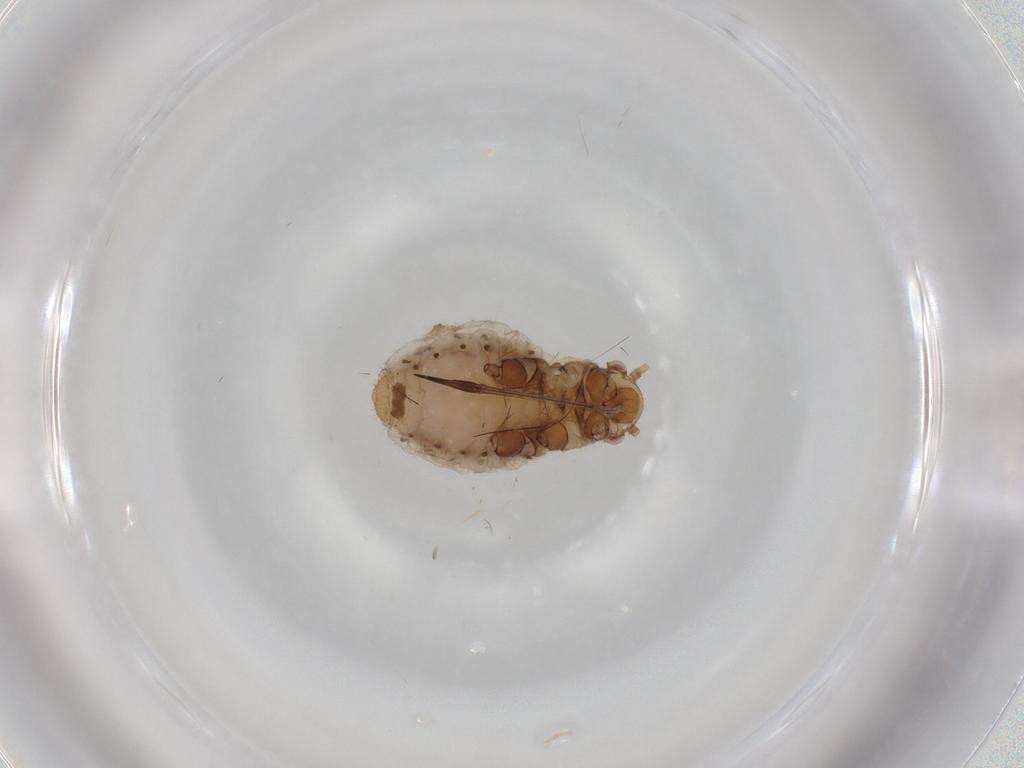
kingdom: Animalia
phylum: Arthropoda
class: Insecta
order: Hemiptera
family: Aphididae
